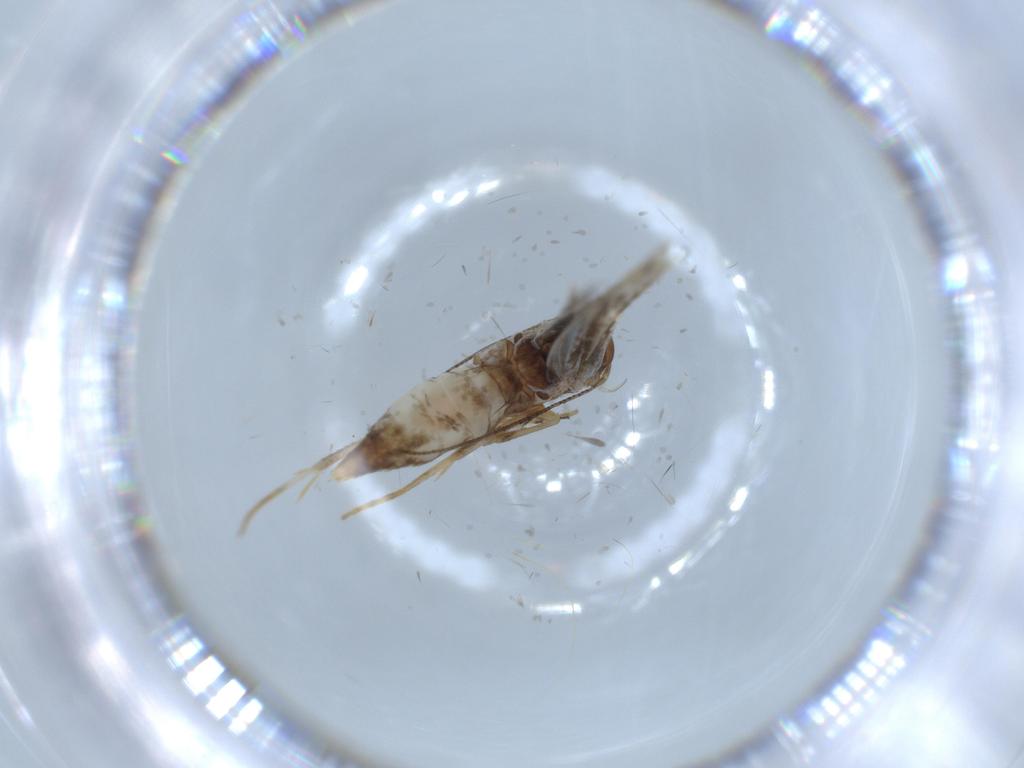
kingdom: Animalia
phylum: Arthropoda
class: Insecta
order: Lepidoptera
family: Elachistidae
